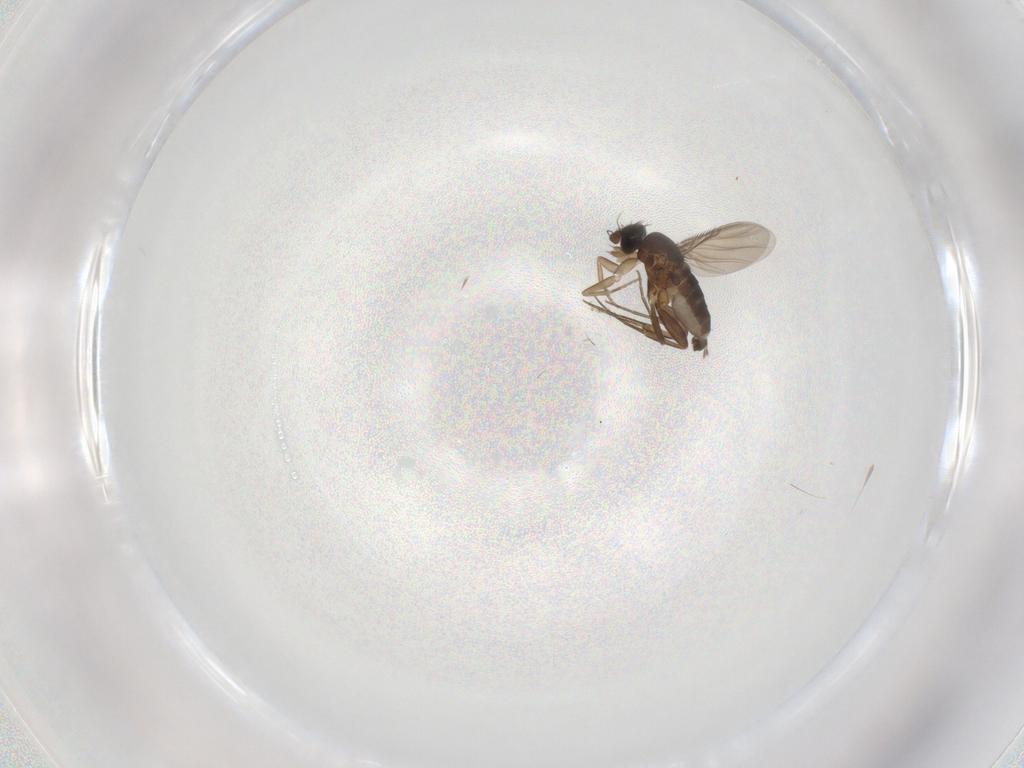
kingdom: Animalia
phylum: Arthropoda
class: Insecta
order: Diptera
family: Phoridae
